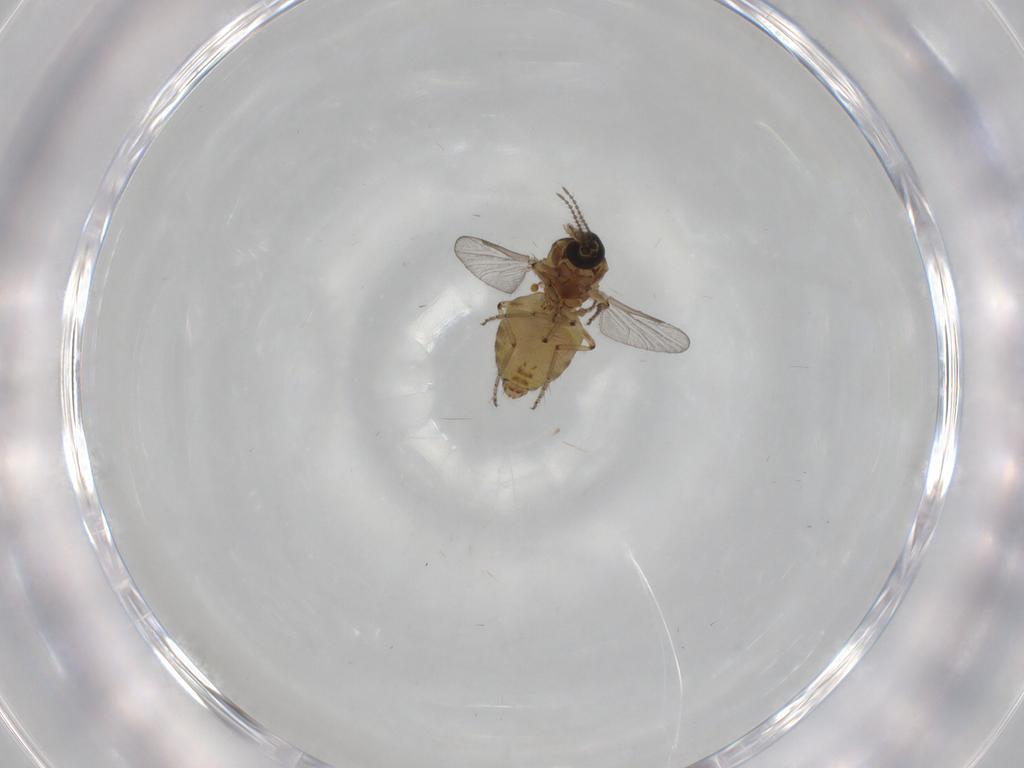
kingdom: Animalia
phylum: Arthropoda
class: Insecta
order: Diptera
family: Ceratopogonidae
